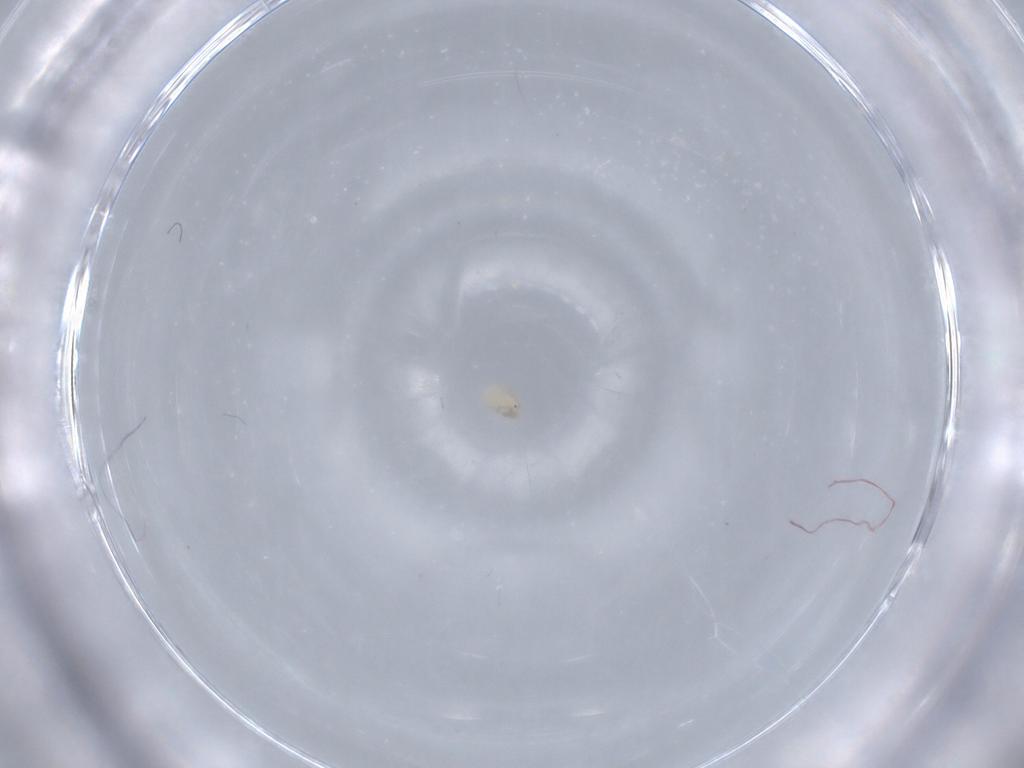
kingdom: Animalia
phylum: Arthropoda
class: Arachnida
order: Trombidiformes
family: Lebertiidae
